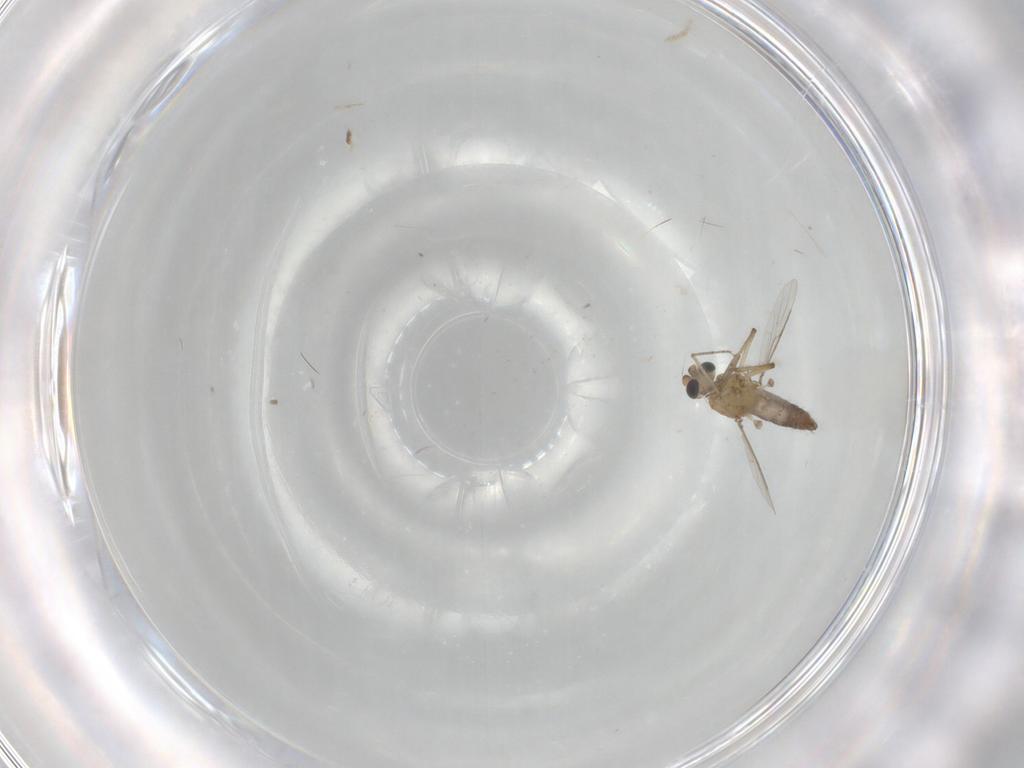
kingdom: Animalia
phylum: Arthropoda
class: Insecta
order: Diptera
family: Ceratopogonidae
